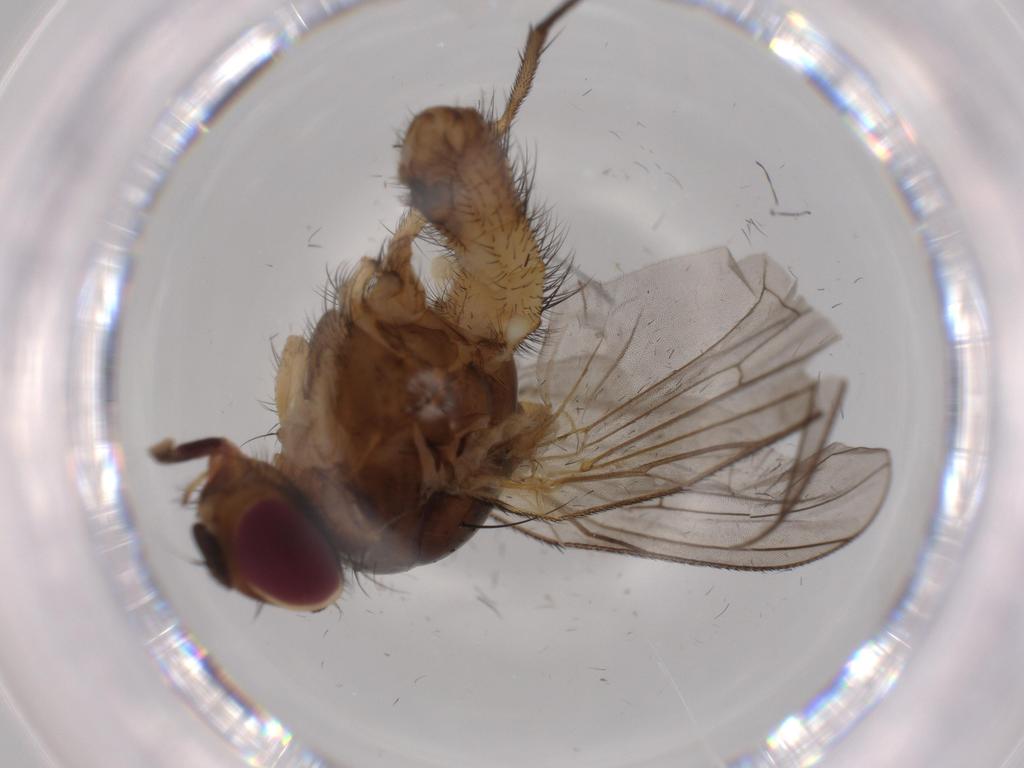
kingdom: Animalia
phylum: Arthropoda
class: Insecta
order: Diptera
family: Anthomyiidae
